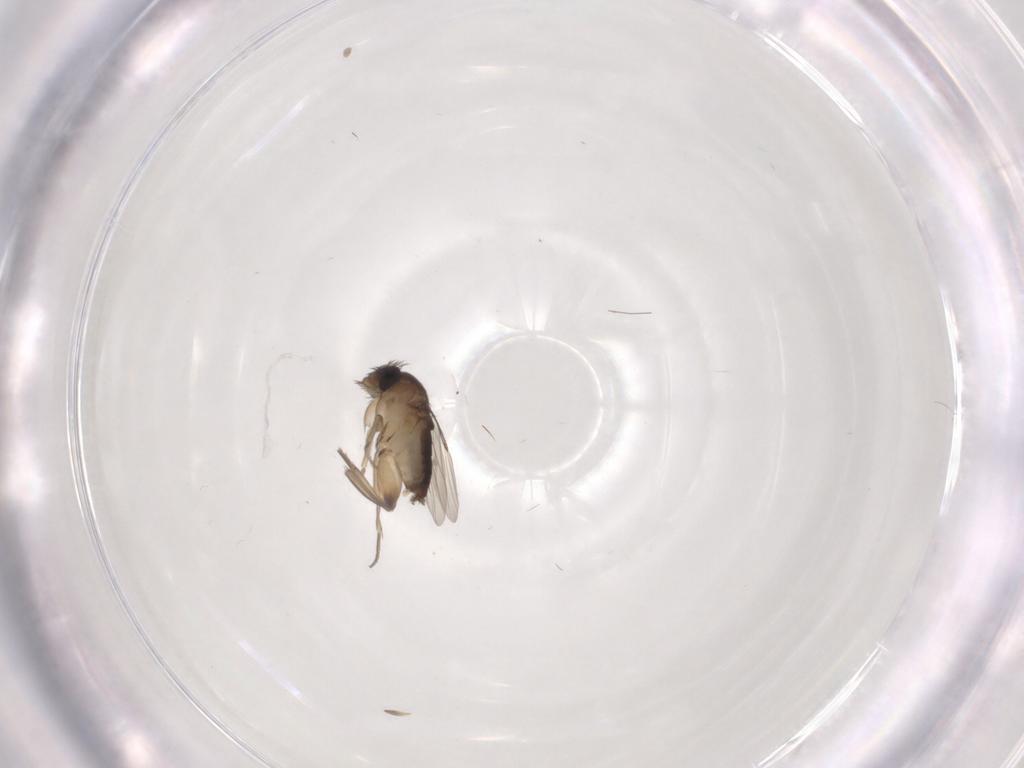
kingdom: Animalia
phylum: Arthropoda
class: Insecta
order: Diptera
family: Phoridae
